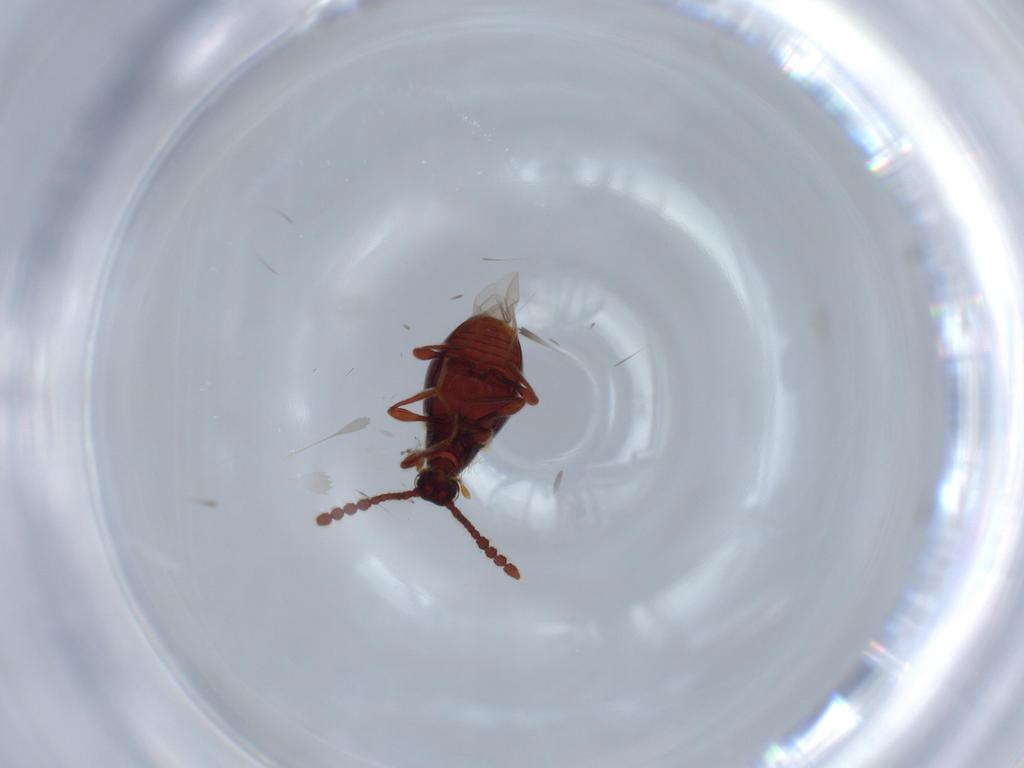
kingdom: Animalia
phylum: Arthropoda
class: Insecta
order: Coleoptera
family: Staphylinidae
